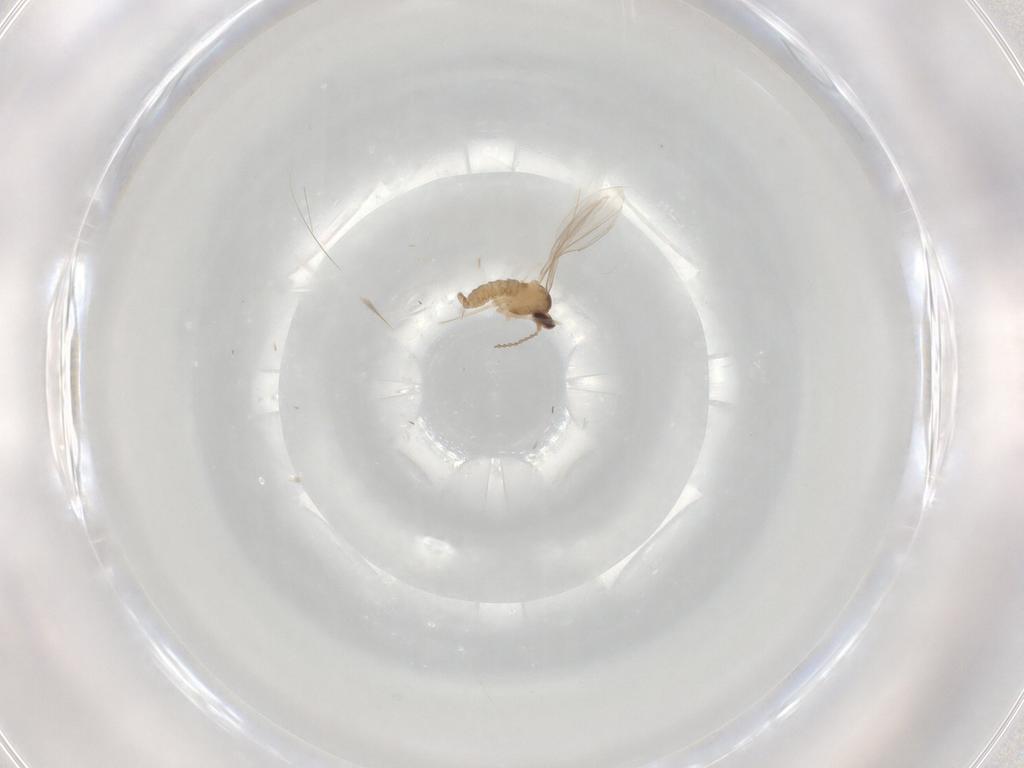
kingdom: Animalia
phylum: Arthropoda
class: Insecta
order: Diptera
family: Cecidomyiidae
